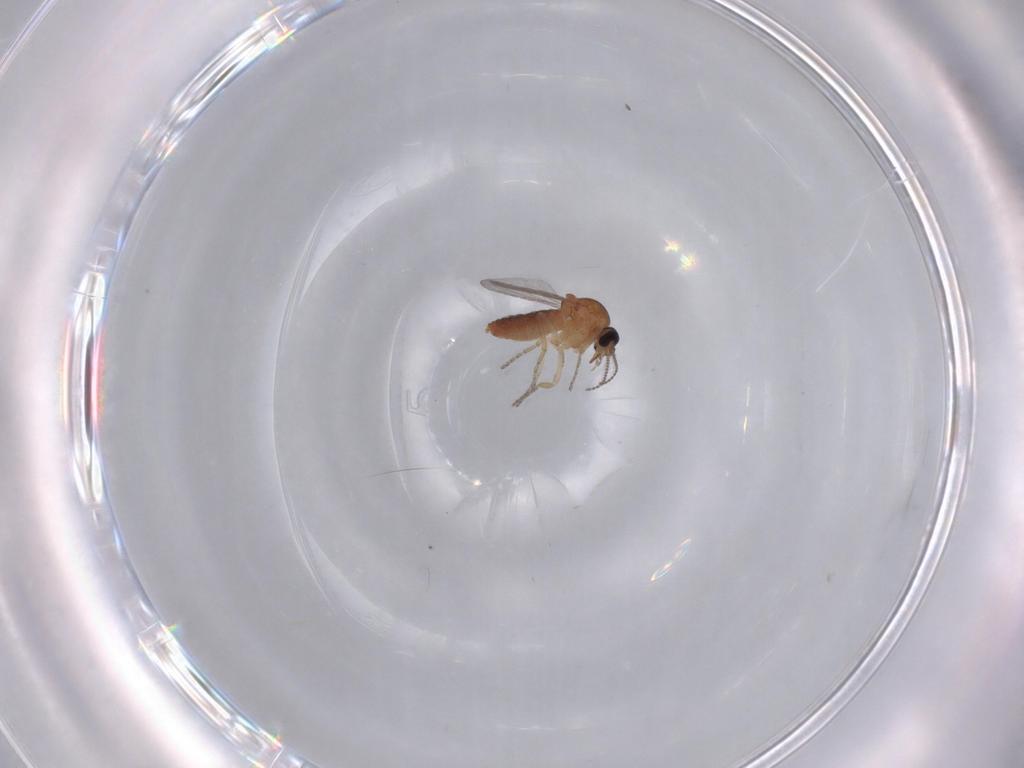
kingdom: Animalia
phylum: Arthropoda
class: Insecta
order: Diptera
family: Ceratopogonidae
